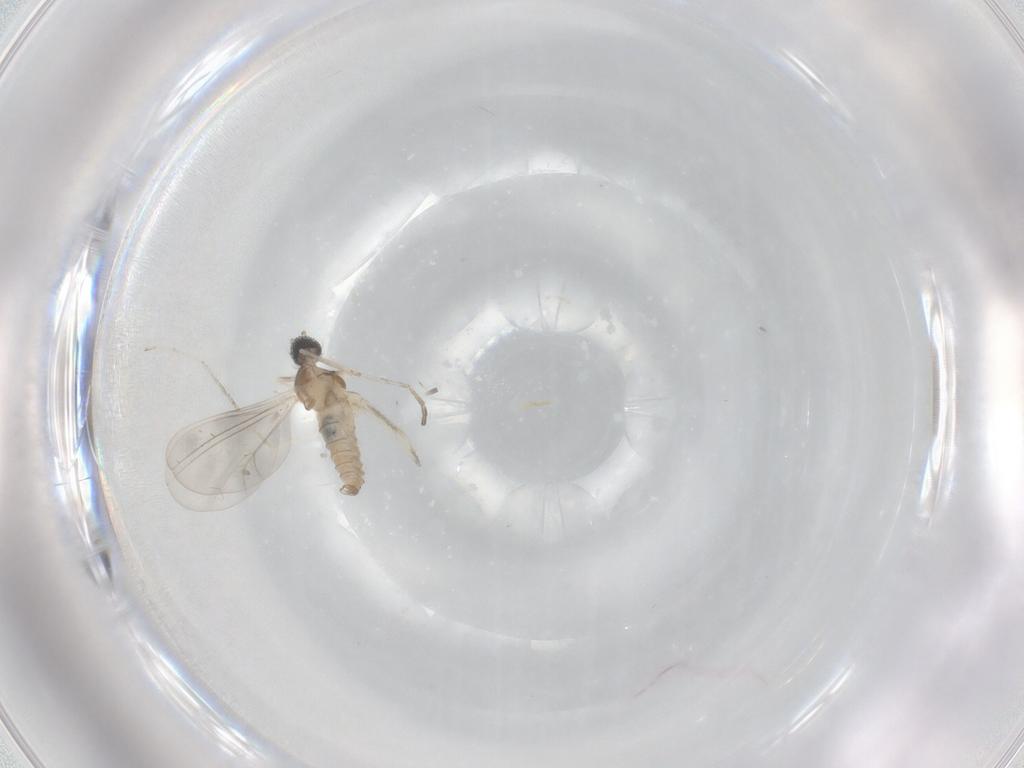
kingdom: Animalia
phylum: Arthropoda
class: Insecta
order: Diptera
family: Cecidomyiidae
